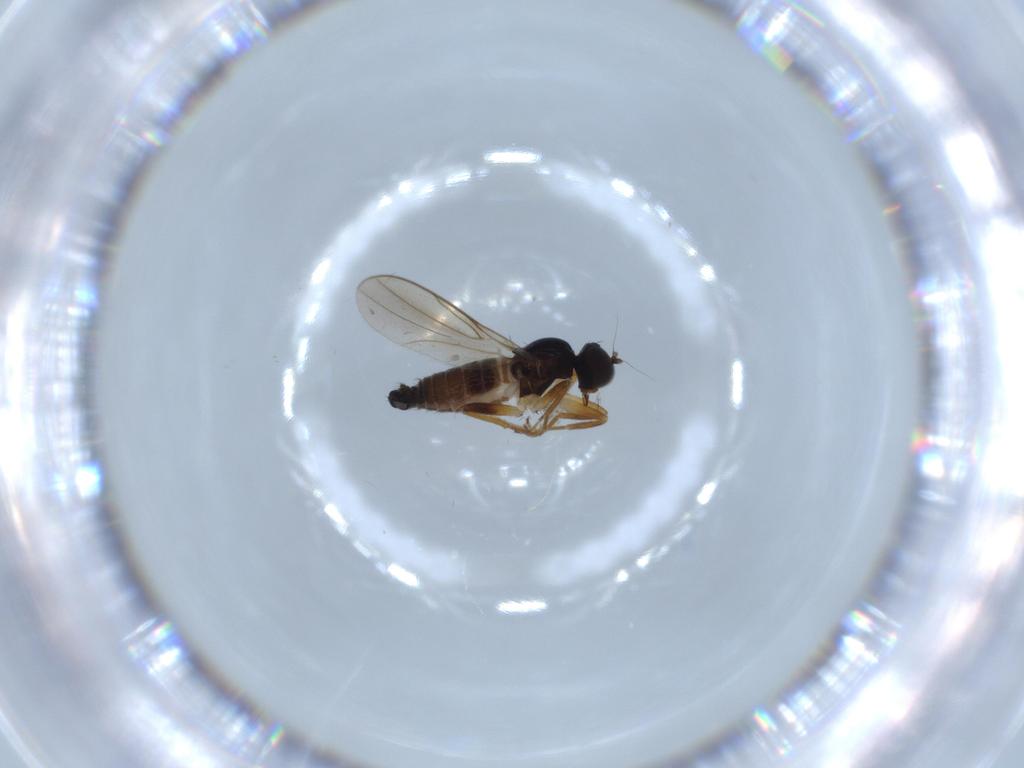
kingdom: Animalia
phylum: Arthropoda
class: Insecta
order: Diptera
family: Hybotidae
